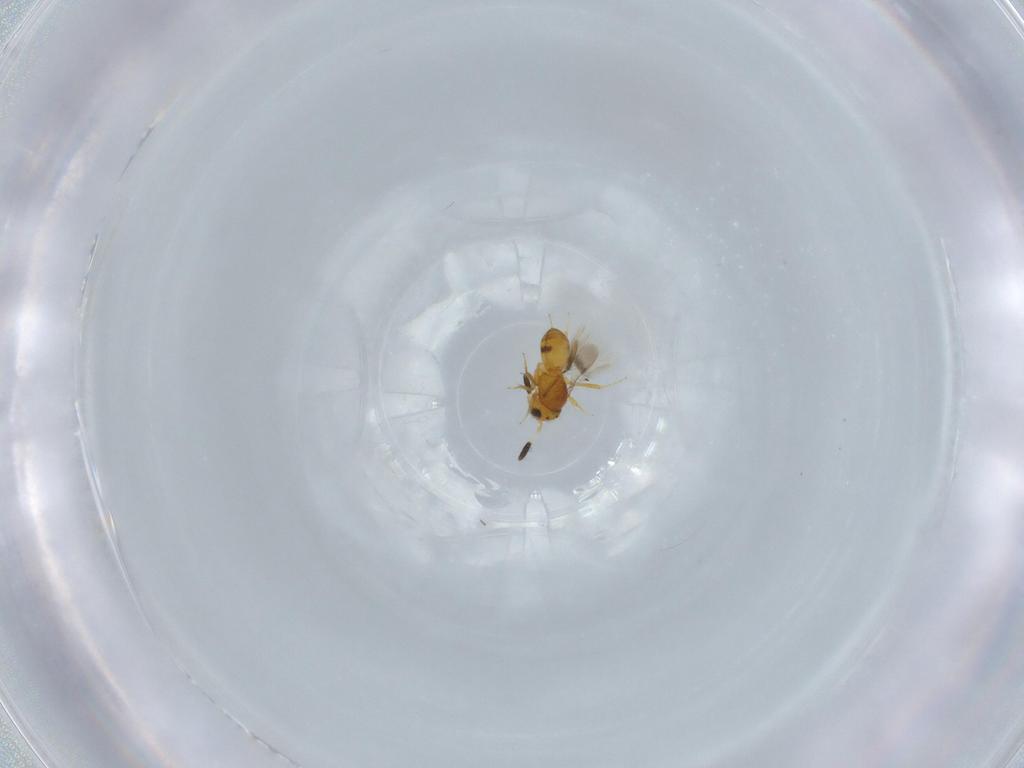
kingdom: Animalia
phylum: Arthropoda
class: Insecta
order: Hymenoptera
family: Scelionidae
